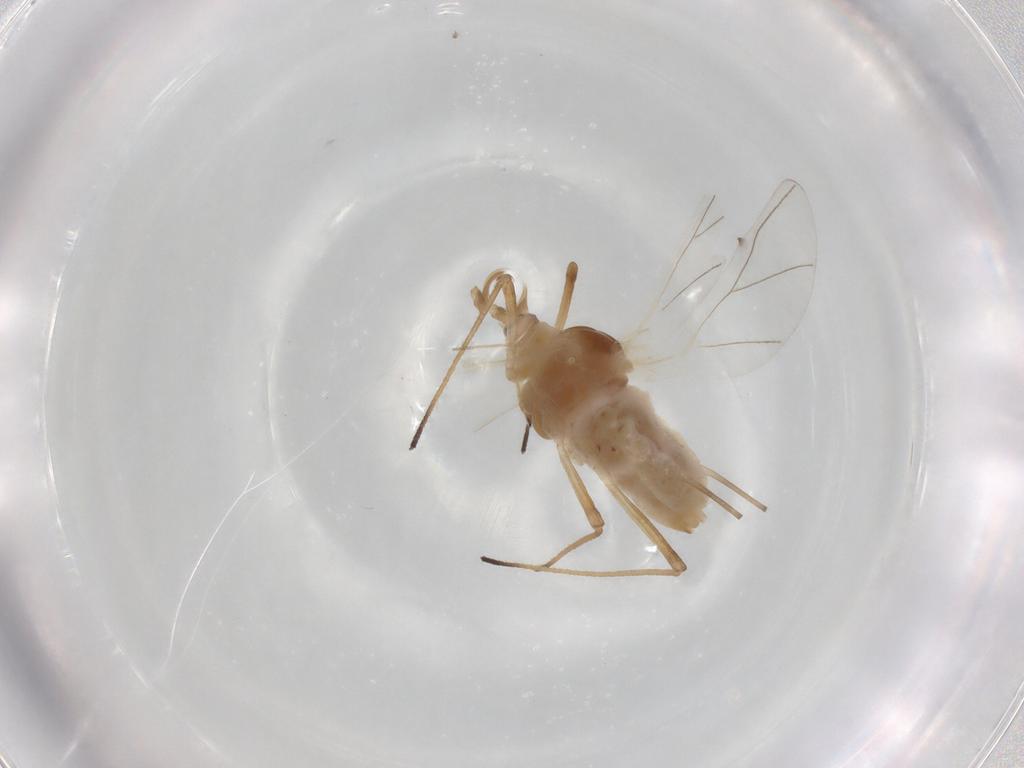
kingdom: Animalia
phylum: Arthropoda
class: Insecta
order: Hemiptera
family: Aphididae
